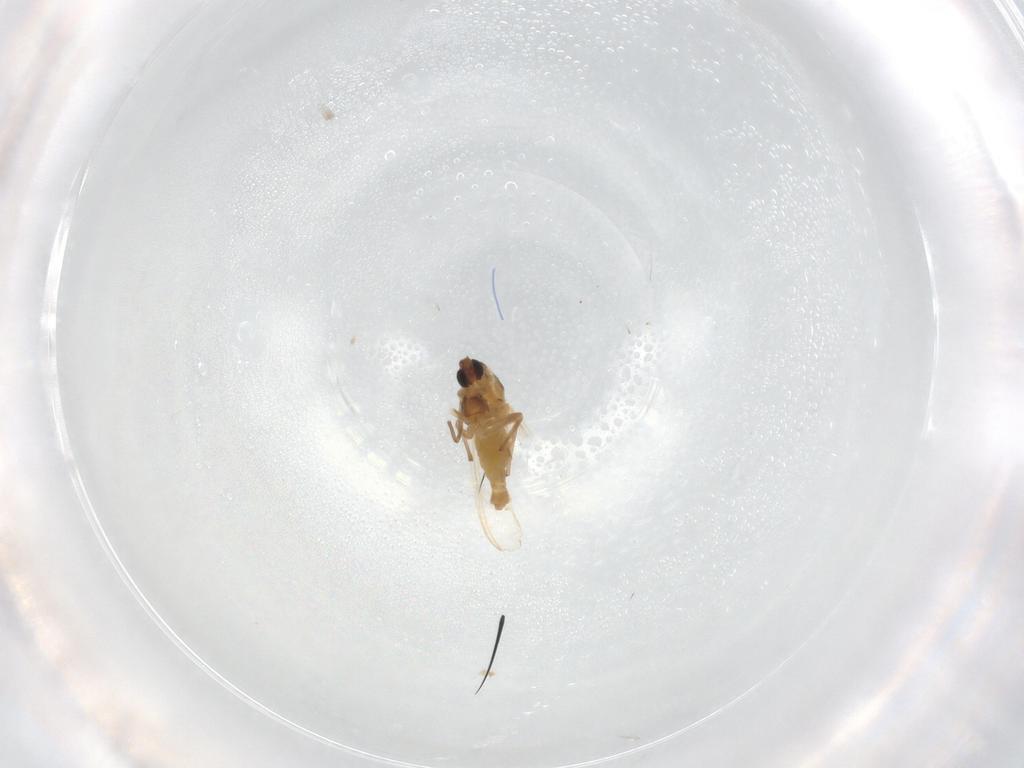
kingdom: Animalia
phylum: Arthropoda
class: Insecta
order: Diptera
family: Chironomidae
